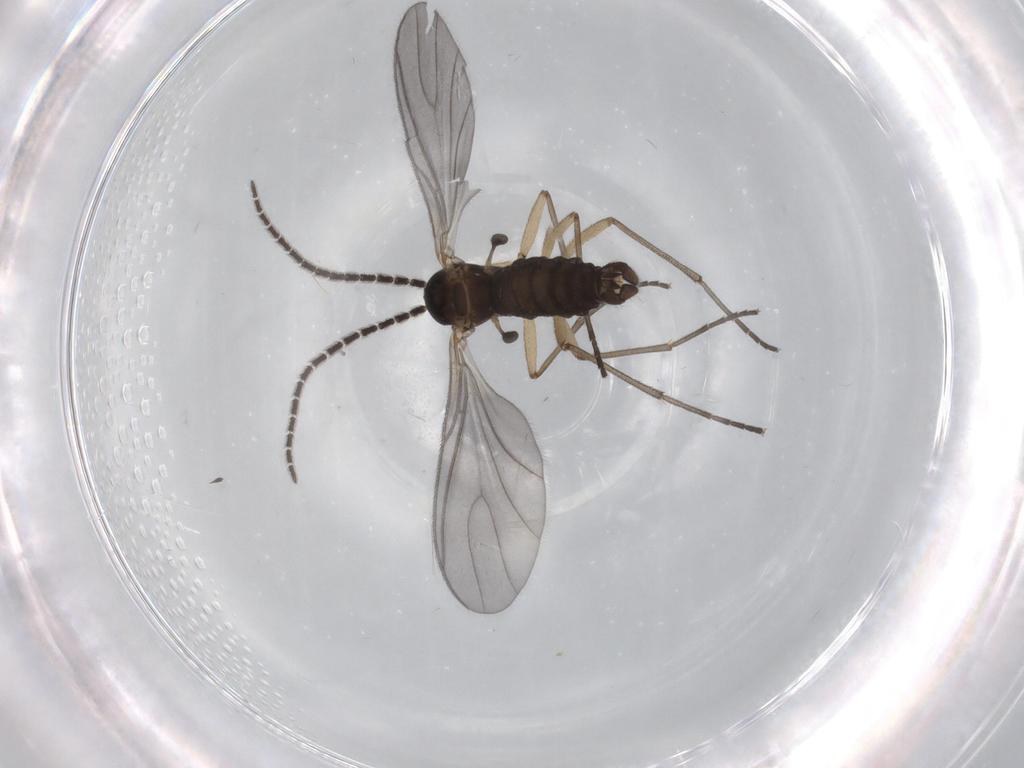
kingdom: Animalia
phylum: Arthropoda
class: Insecta
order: Diptera
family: Sciaridae
